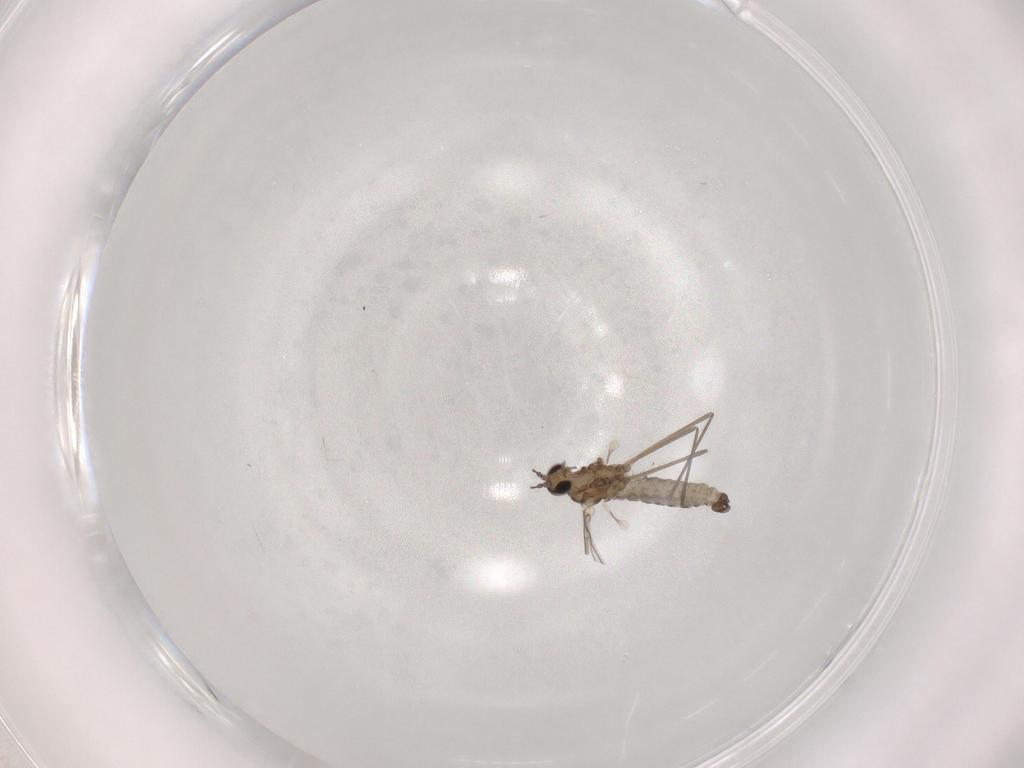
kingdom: Animalia
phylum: Arthropoda
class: Insecta
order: Diptera
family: Cecidomyiidae
